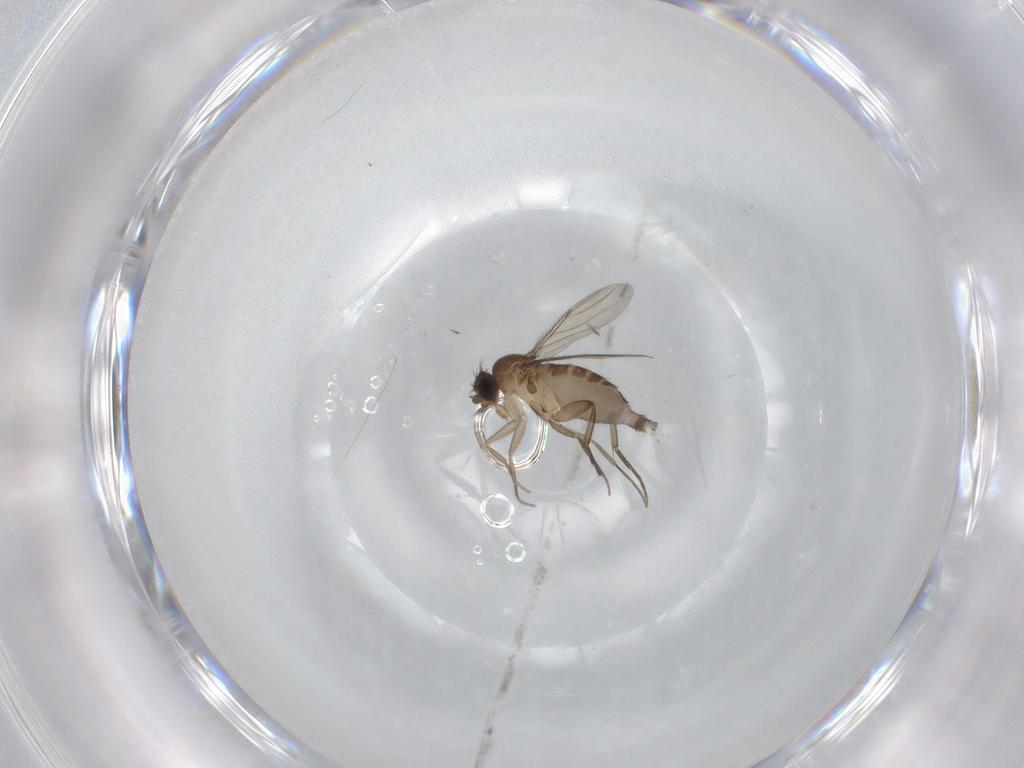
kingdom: Animalia
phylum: Arthropoda
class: Insecta
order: Diptera
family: Phoridae
